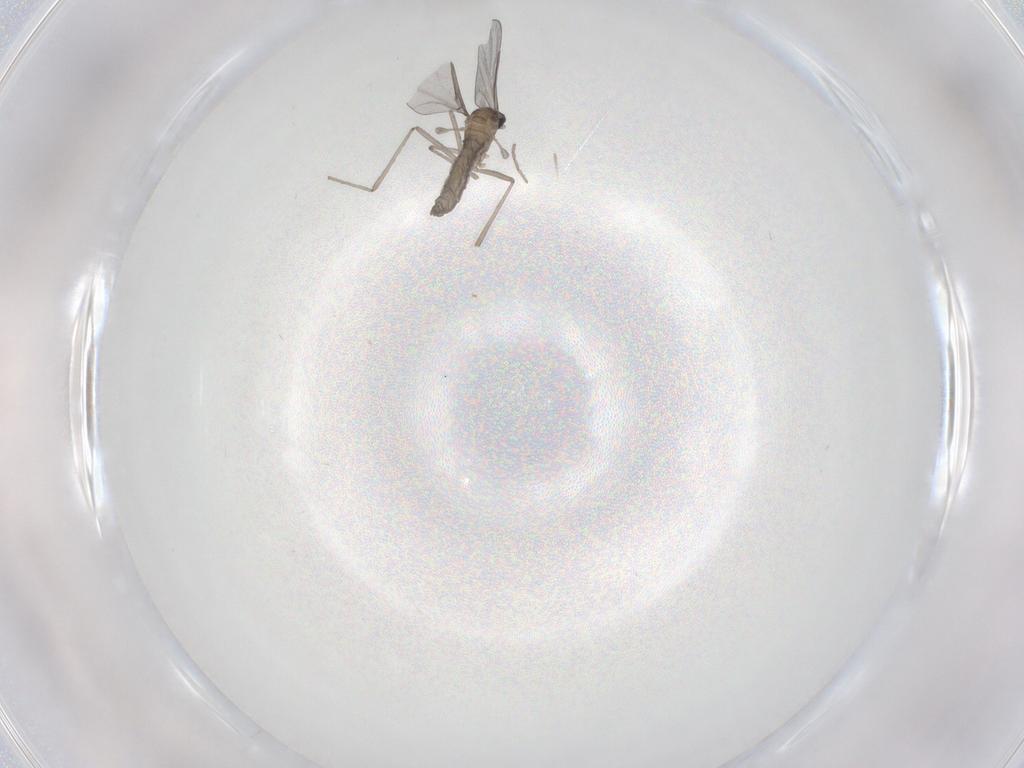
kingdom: Animalia
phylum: Arthropoda
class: Insecta
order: Diptera
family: Cecidomyiidae
